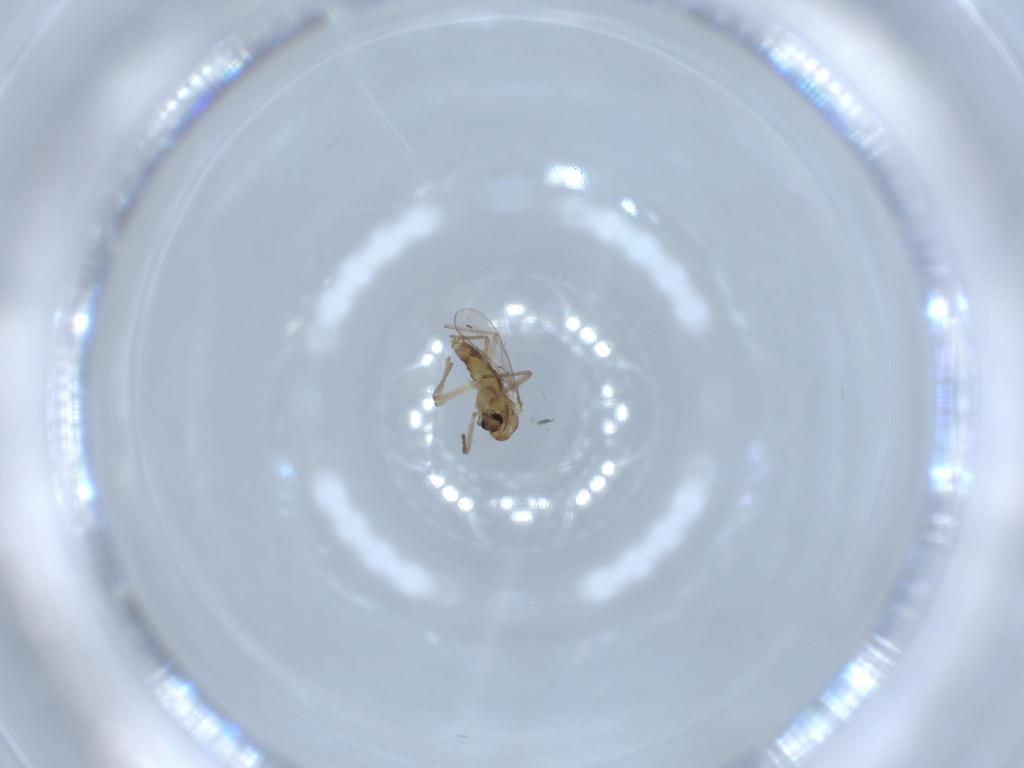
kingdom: Animalia
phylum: Arthropoda
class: Insecta
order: Diptera
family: Chironomidae
